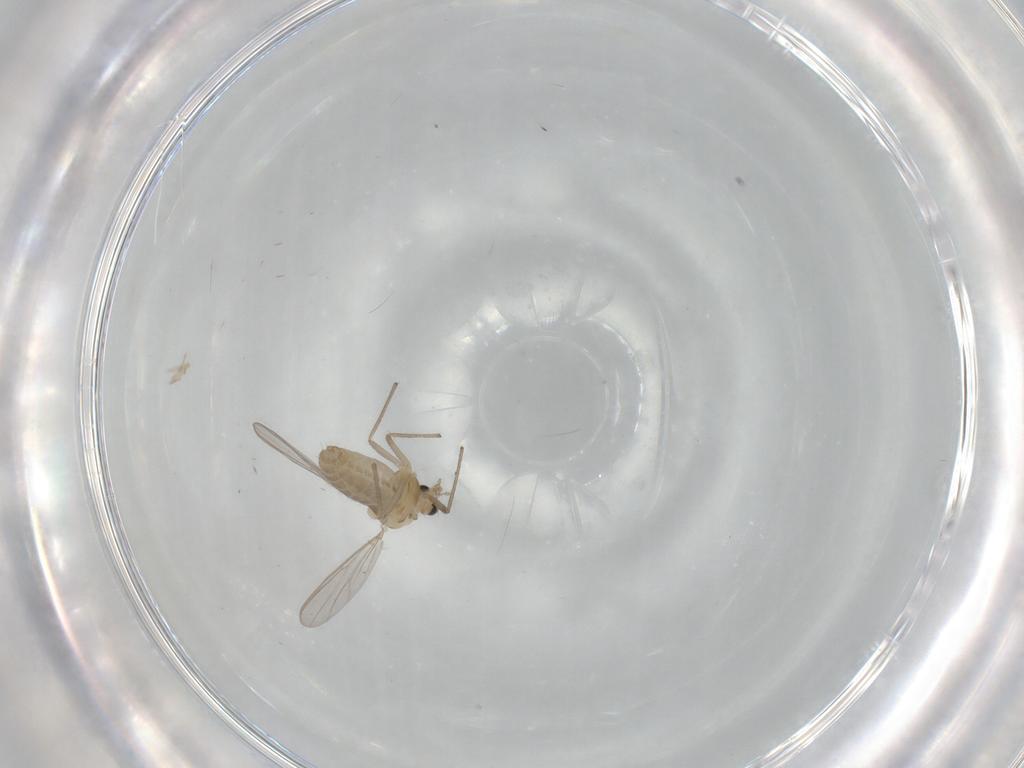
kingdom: Animalia
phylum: Arthropoda
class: Insecta
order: Diptera
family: Chironomidae
